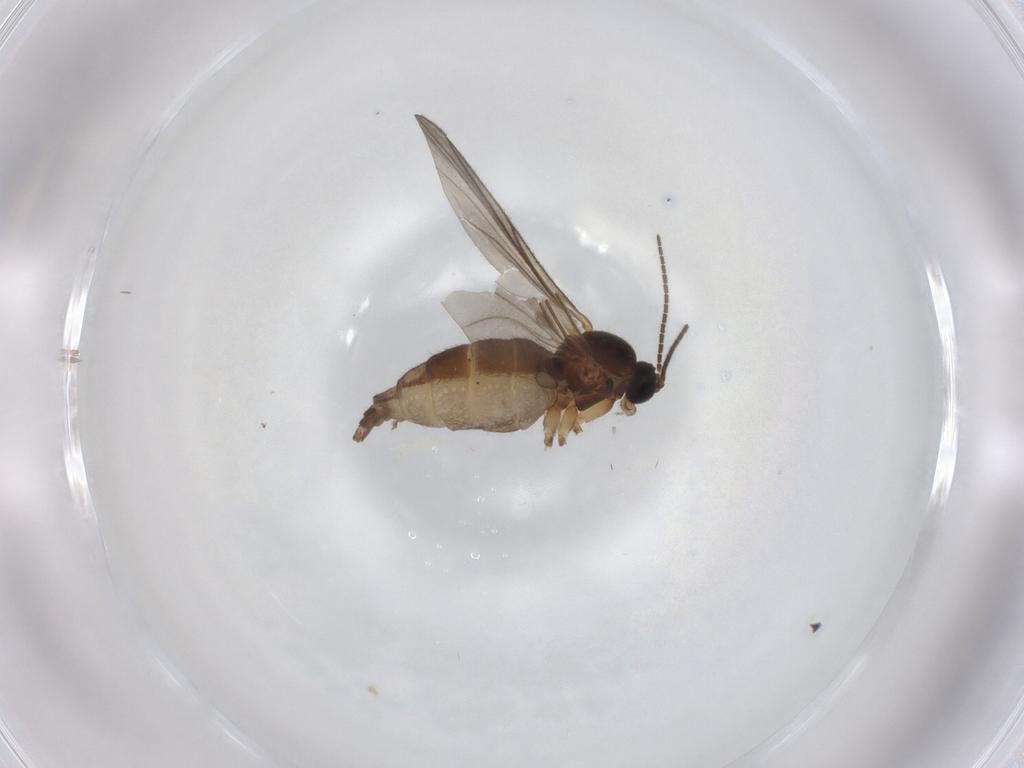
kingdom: Animalia
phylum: Arthropoda
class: Insecta
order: Diptera
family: Sciaridae
